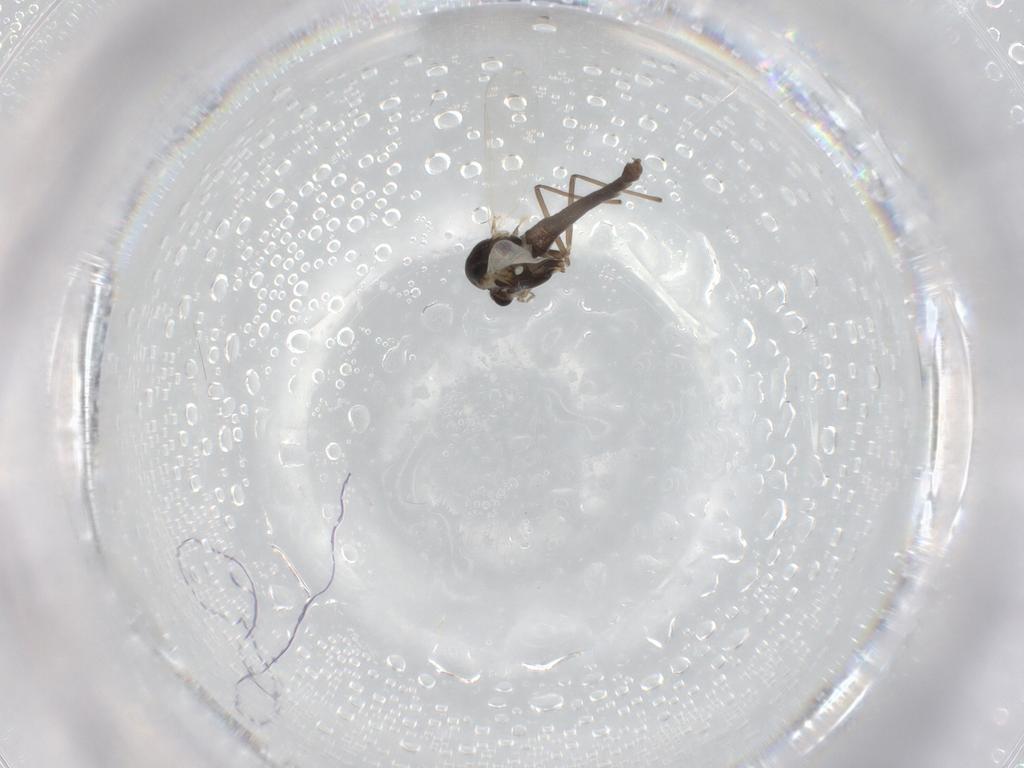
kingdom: Animalia
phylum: Arthropoda
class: Insecta
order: Diptera
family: Chironomidae
